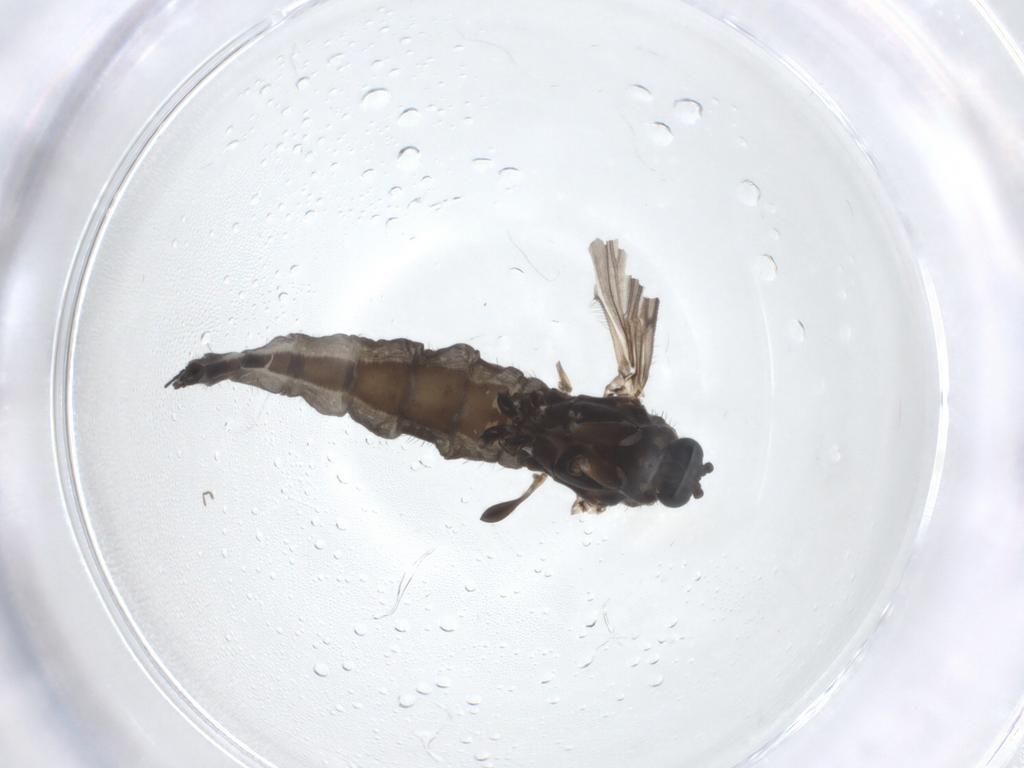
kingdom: Animalia
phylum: Arthropoda
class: Insecta
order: Diptera
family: Sciaridae
